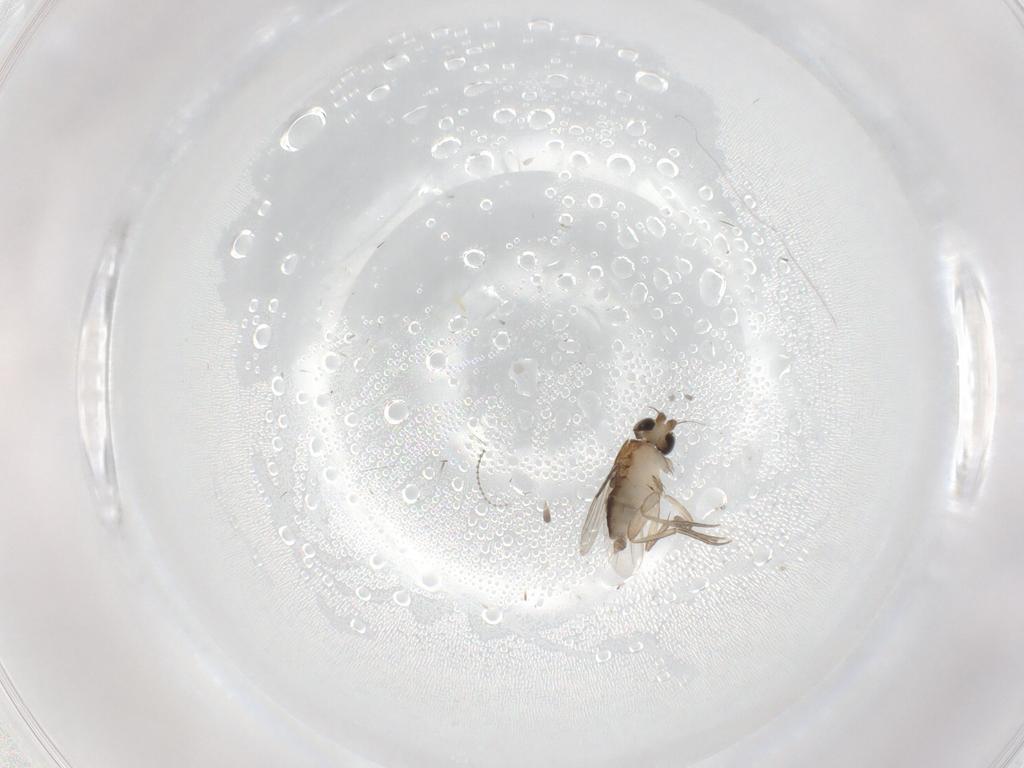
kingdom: Animalia
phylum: Arthropoda
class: Insecta
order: Diptera
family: Phoridae
